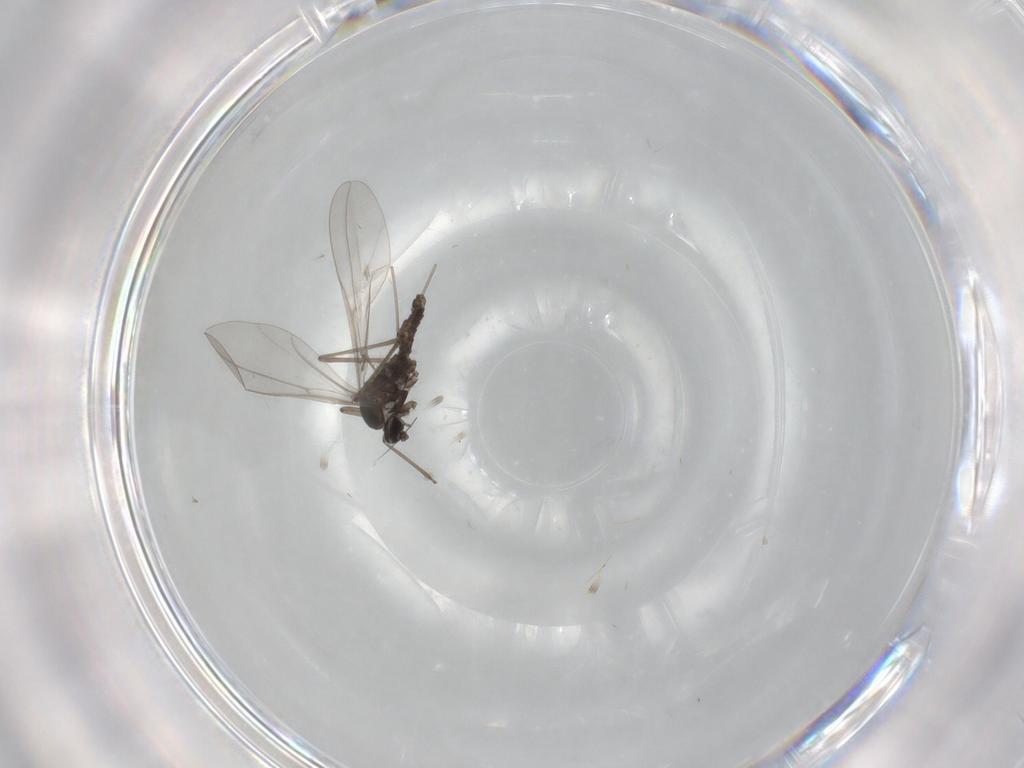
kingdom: Animalia
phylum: Arthropoda
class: Insecta
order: Diptera
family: Cecidomyiidae
